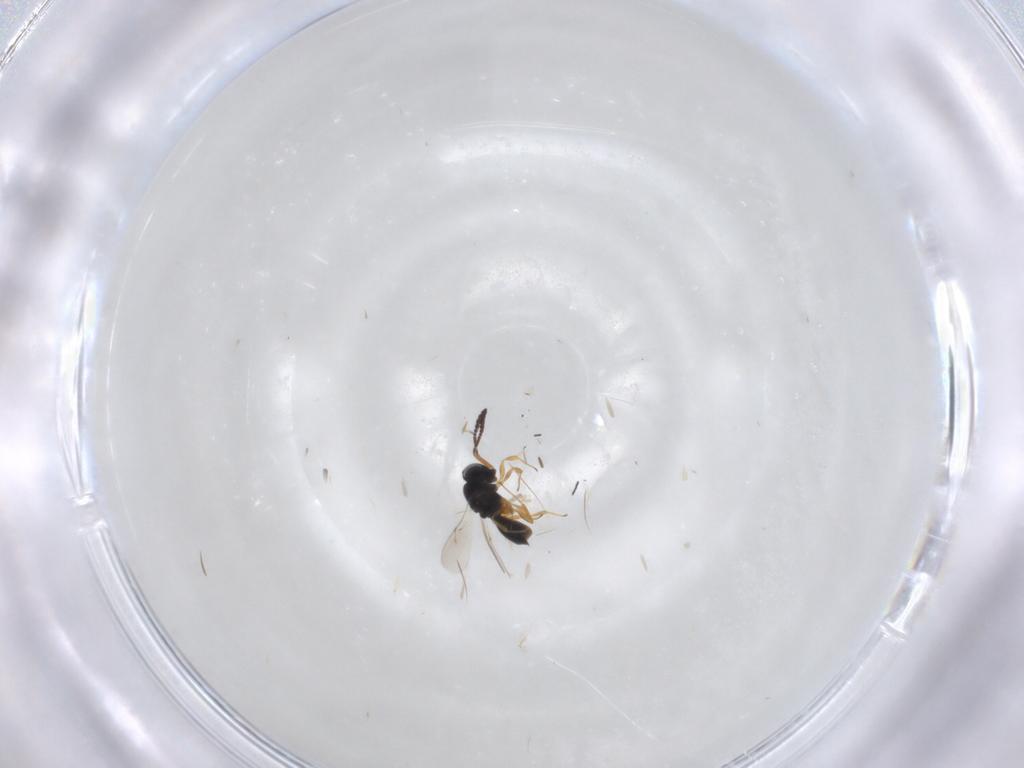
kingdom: Animalia
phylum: Arthropoda
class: Insecta
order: Hymenoptera
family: Scelionidae
